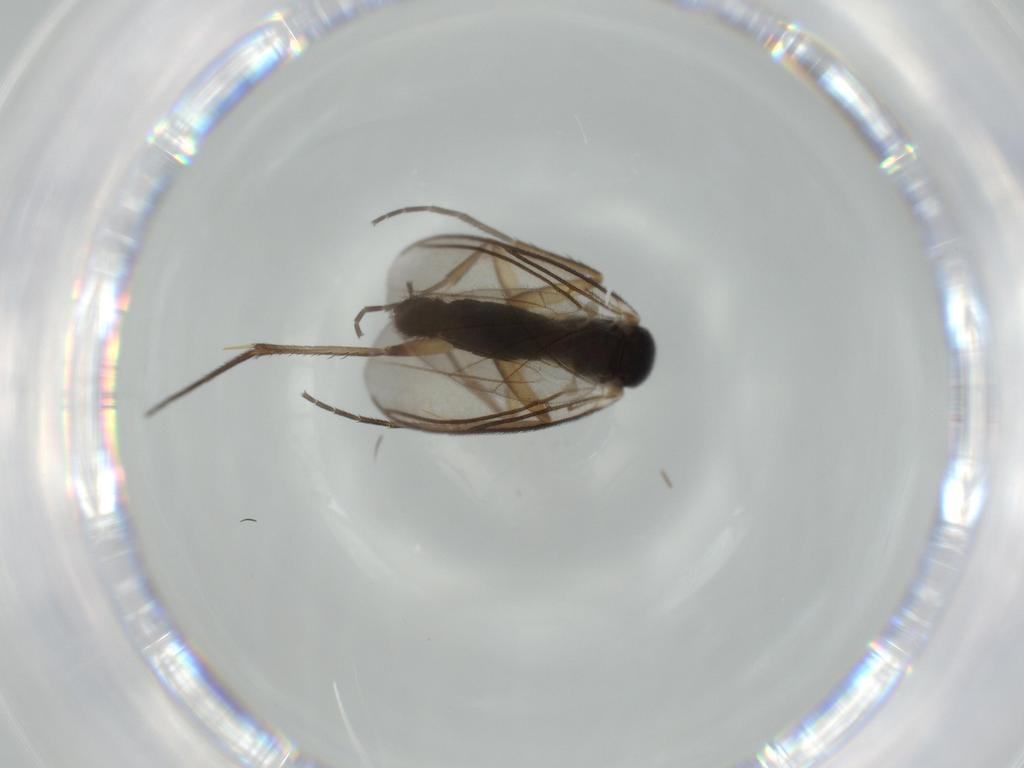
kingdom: Animalia
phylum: Arthropoda
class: Insecta
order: Diptera
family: Mycetophilidae
